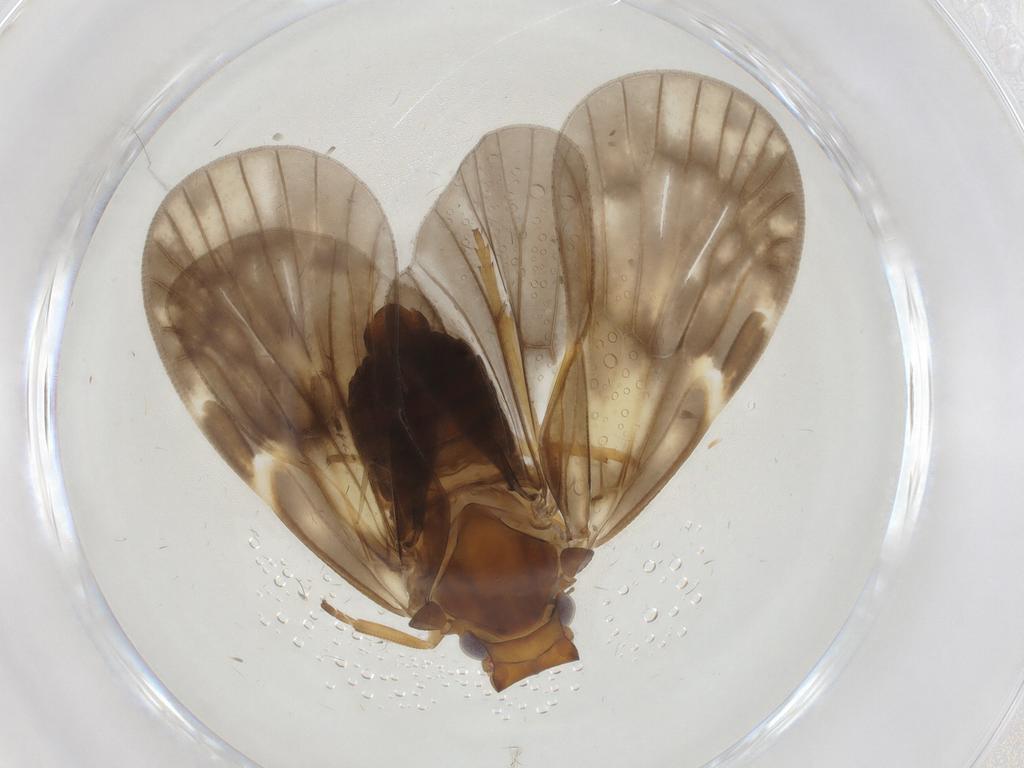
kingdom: Animalia
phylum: Arthropoda
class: Insecta
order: Hemiptera
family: Cixiidae
